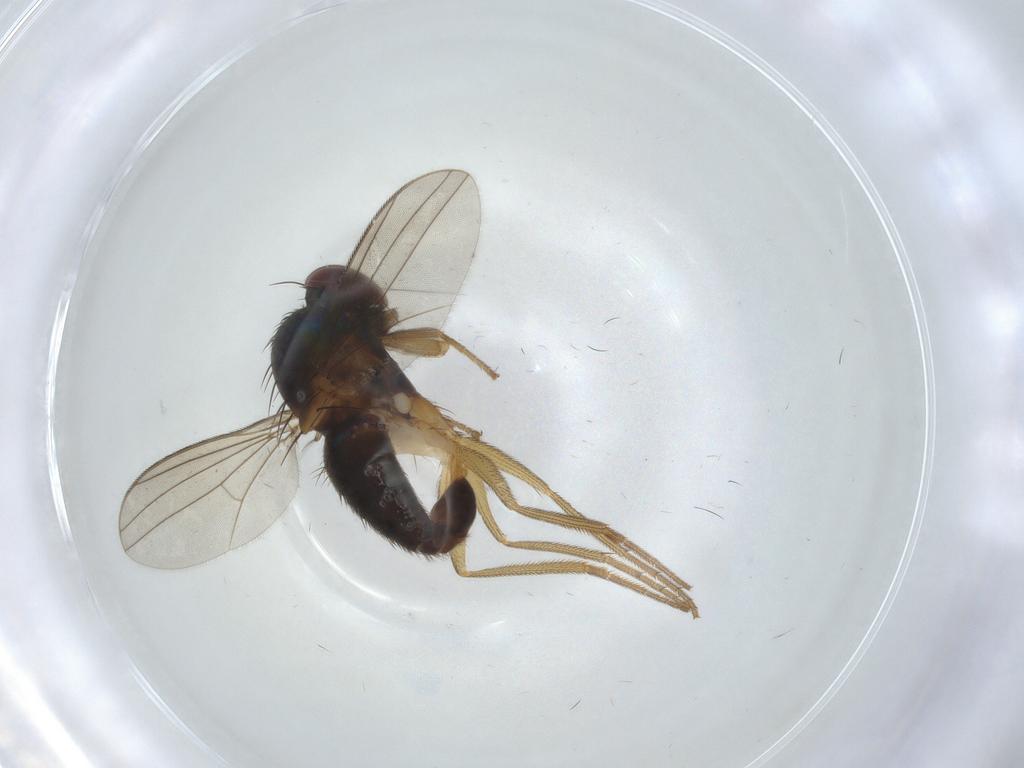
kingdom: Animalia
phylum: Arthropoda
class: Insecta
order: Diptera
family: Dolichopodidae
